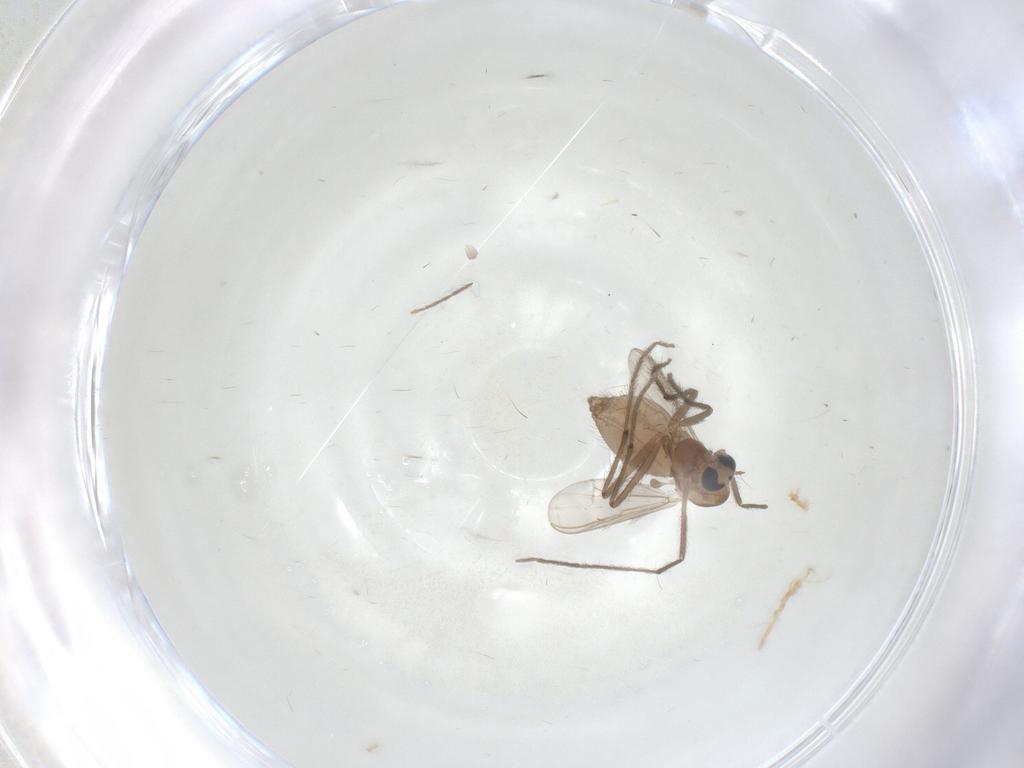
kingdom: Animalia
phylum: Arthropoda
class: Insecta
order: Diptera
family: Chironomidae
